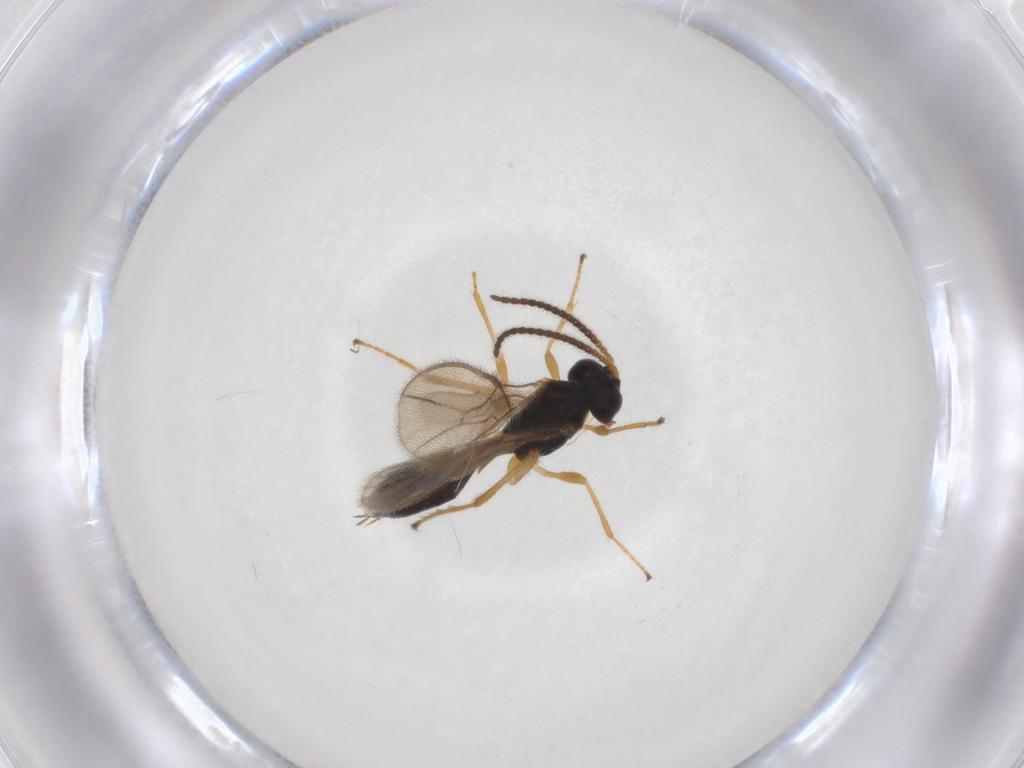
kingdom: Animalia
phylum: Arthropoda
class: Insecta
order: Hymenoptera
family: Braconidae
